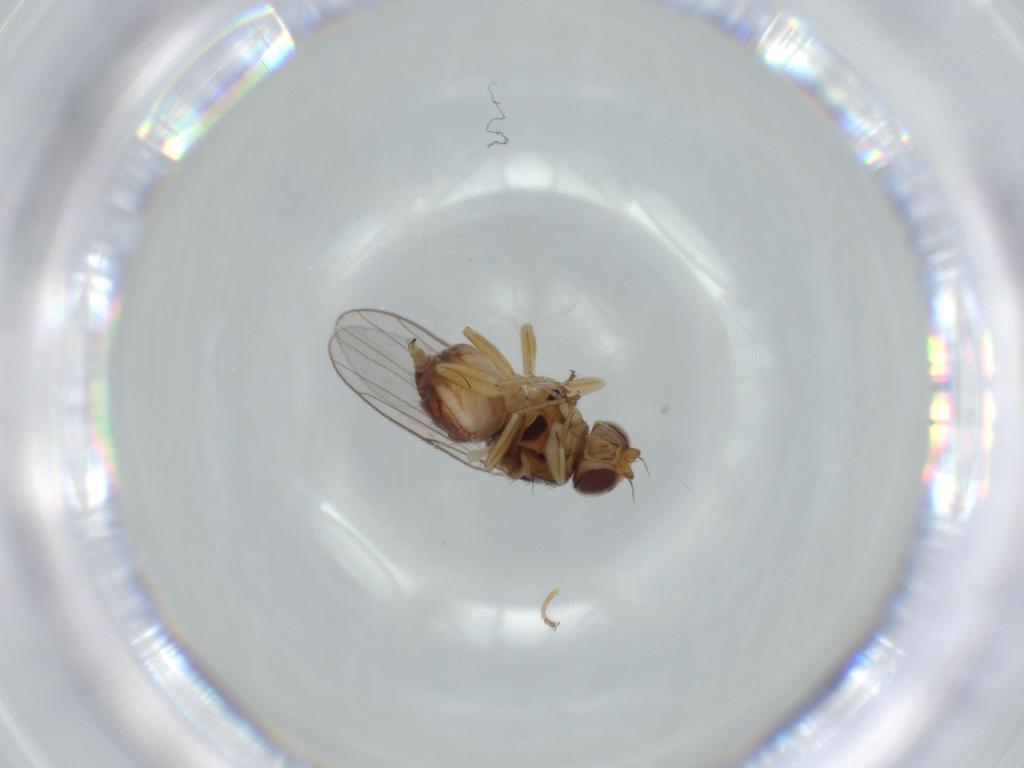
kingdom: Animalia
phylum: Arthropoda
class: Insecta
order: Diptera
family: Chloropidae
